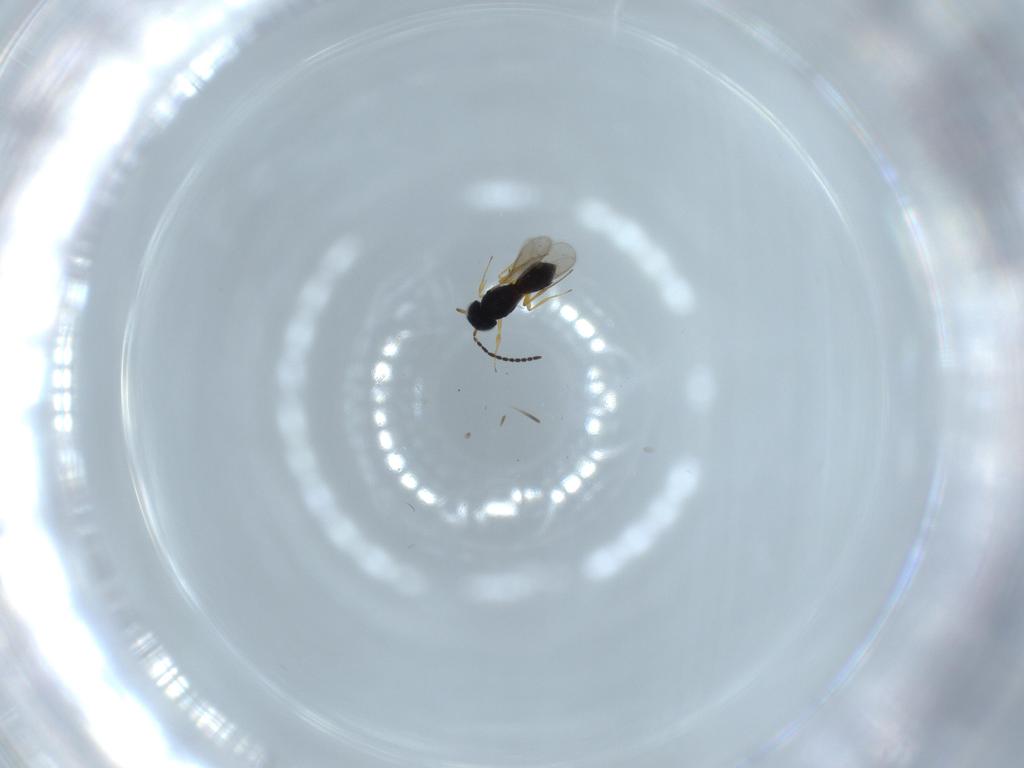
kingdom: Animalia
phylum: Arthropoda
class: Insecta
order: Hymenoptera
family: Scelionidae
